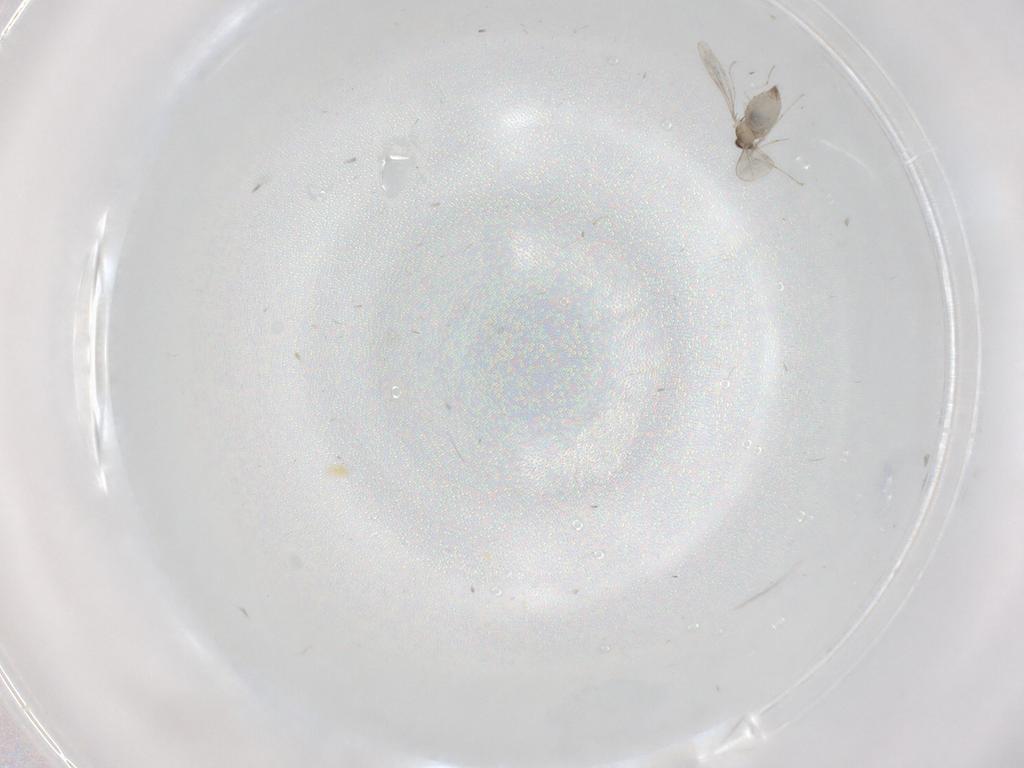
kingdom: Animalia
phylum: Arthropoda
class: Insecta
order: Diptera
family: Cecidomyiidae
